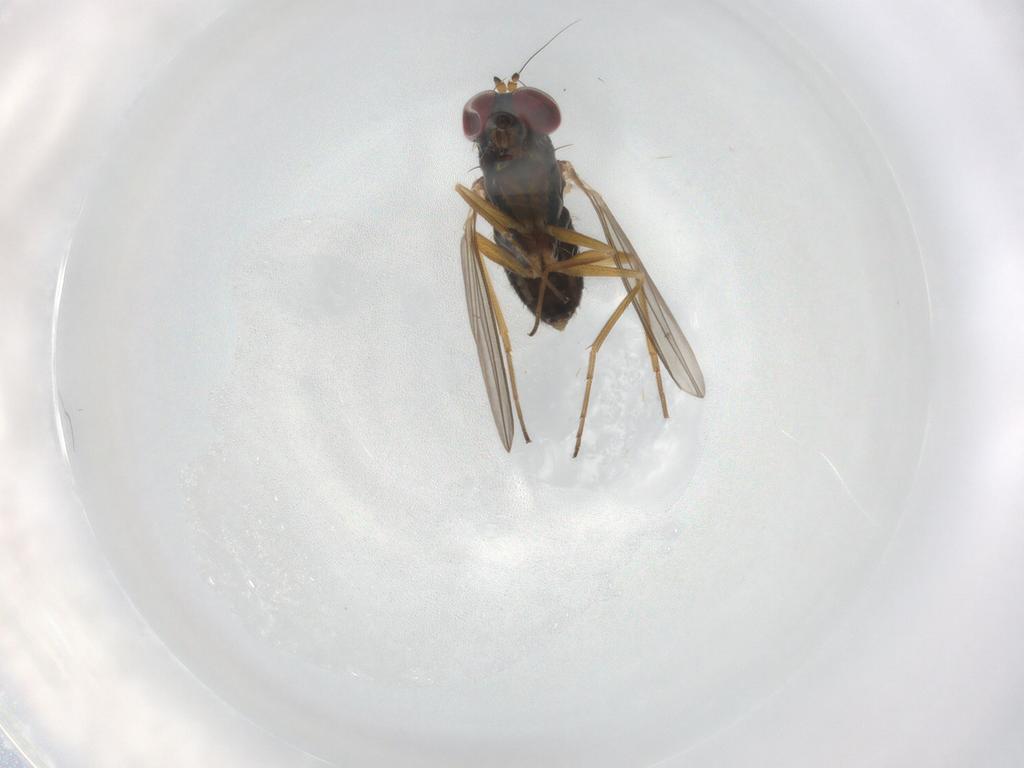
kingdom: Animalia
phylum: Arthropoda
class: Insecta
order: Diptera
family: Dolichopodidae
